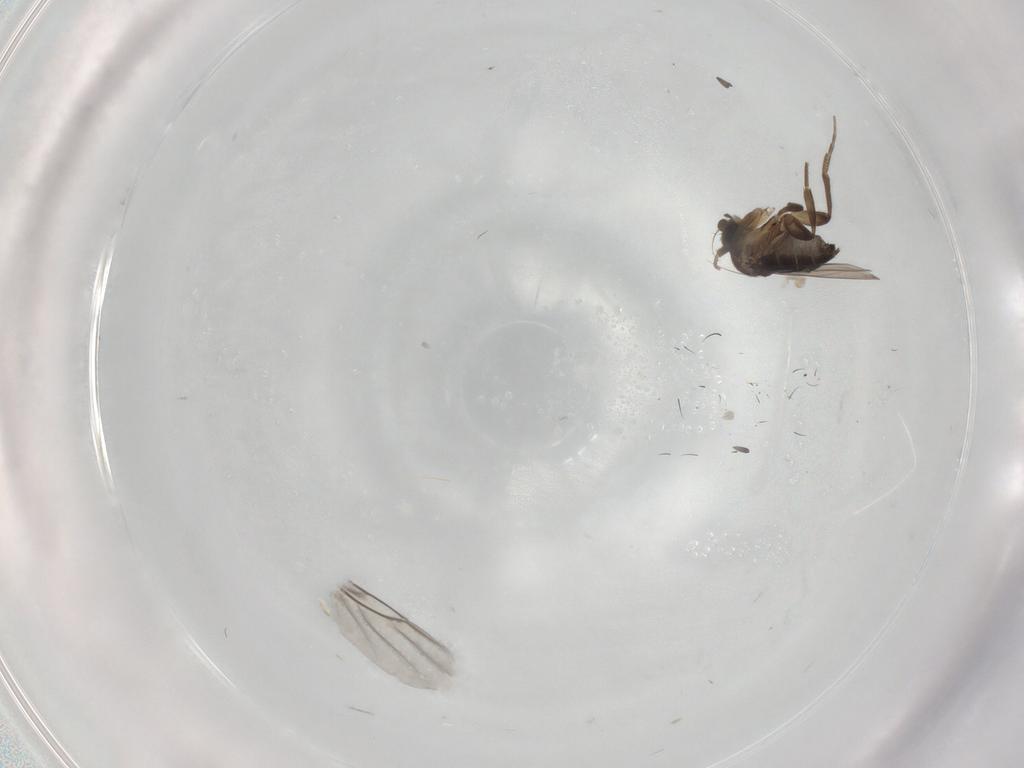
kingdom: Animalia
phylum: Arthropoda
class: Insecta
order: Diptera
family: Phoridae
